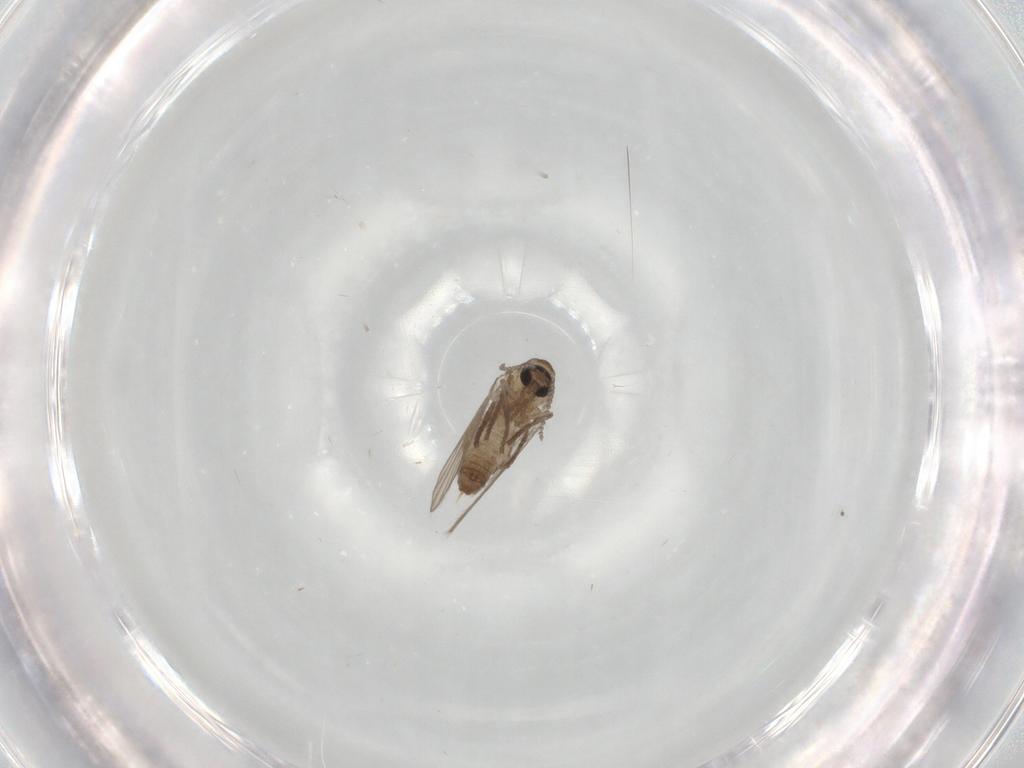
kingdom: Animalia
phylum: Arthropoda
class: Insecta
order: Diptera
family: Psychodidae
